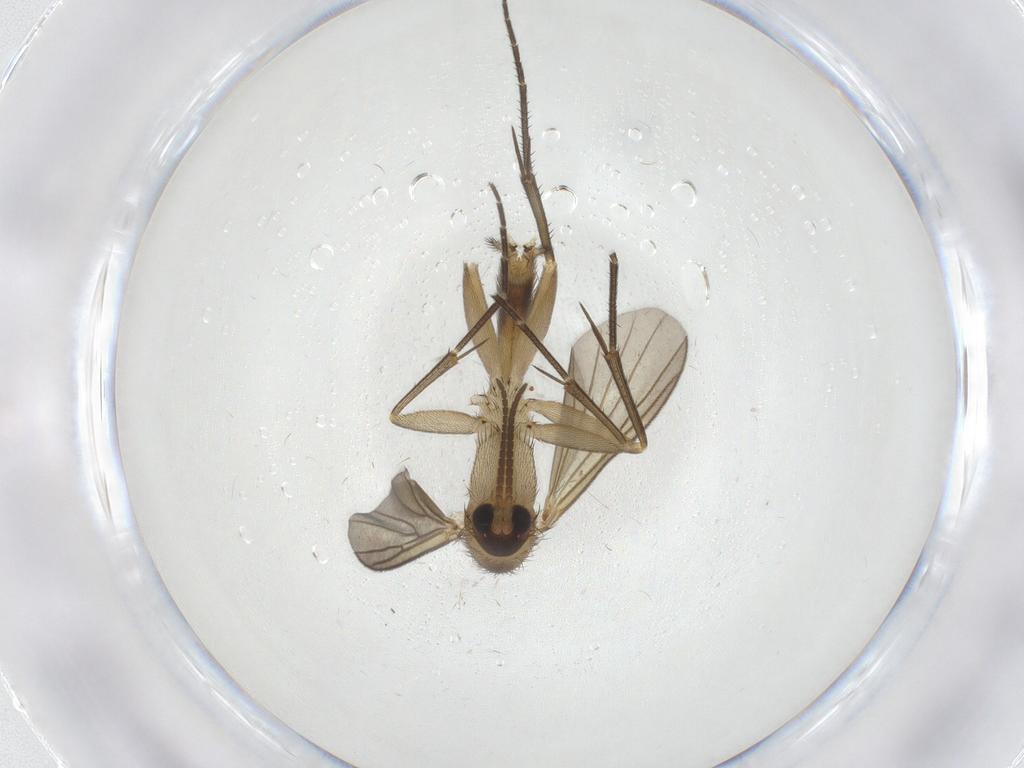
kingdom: Animalia
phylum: Arthropoda
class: Insecta
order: Diptera
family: Mycetophilidae
